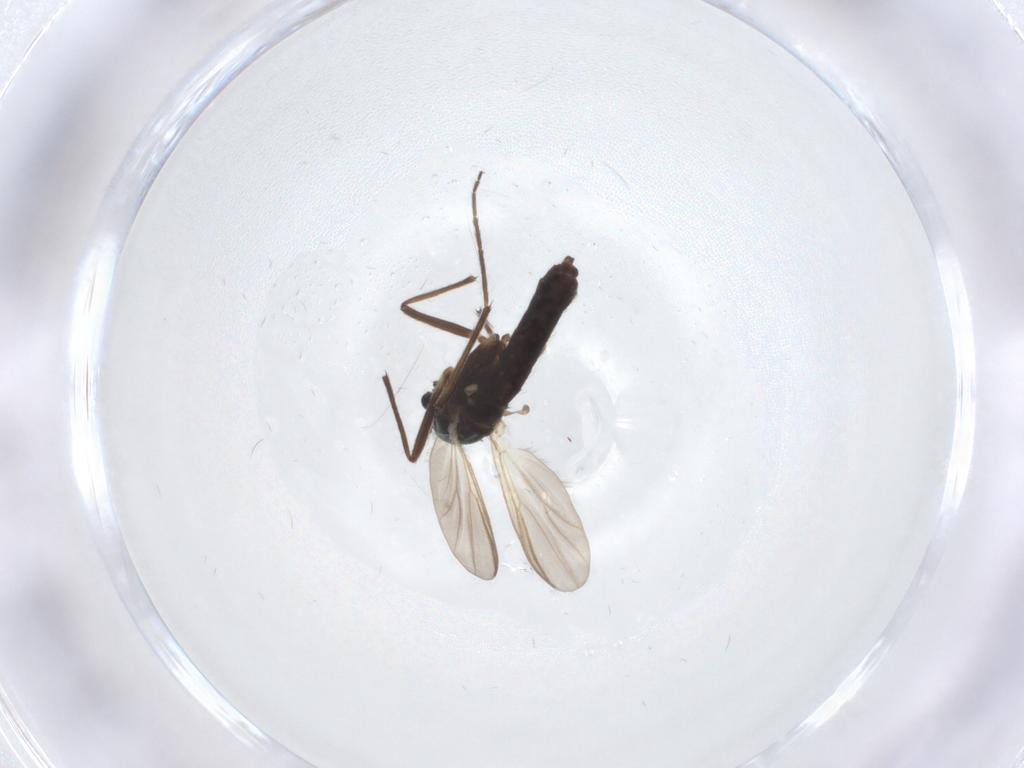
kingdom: Animalia
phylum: Arthropoda
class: Insecta
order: Diptera
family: Chironomidae
